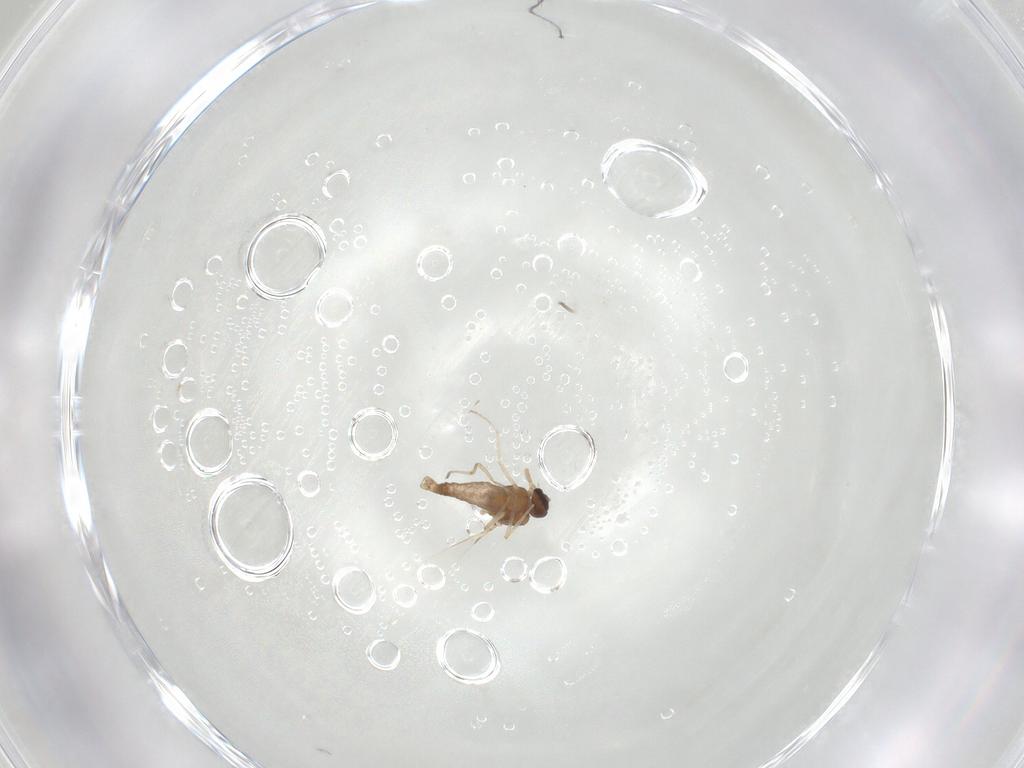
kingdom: Animalia
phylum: Arthropoda
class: Insecta
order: Diptera
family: Ceratopogonidae
